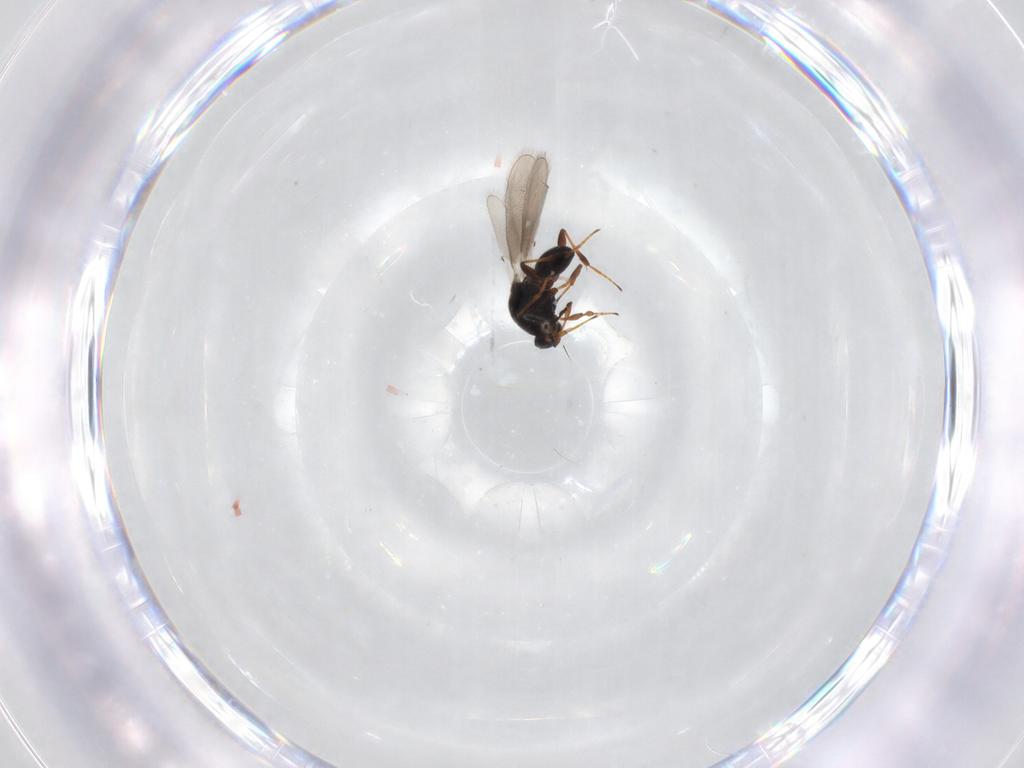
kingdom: Animalia
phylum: Arthropoda
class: Insecta
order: Hymenoptera
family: Platygastridae
